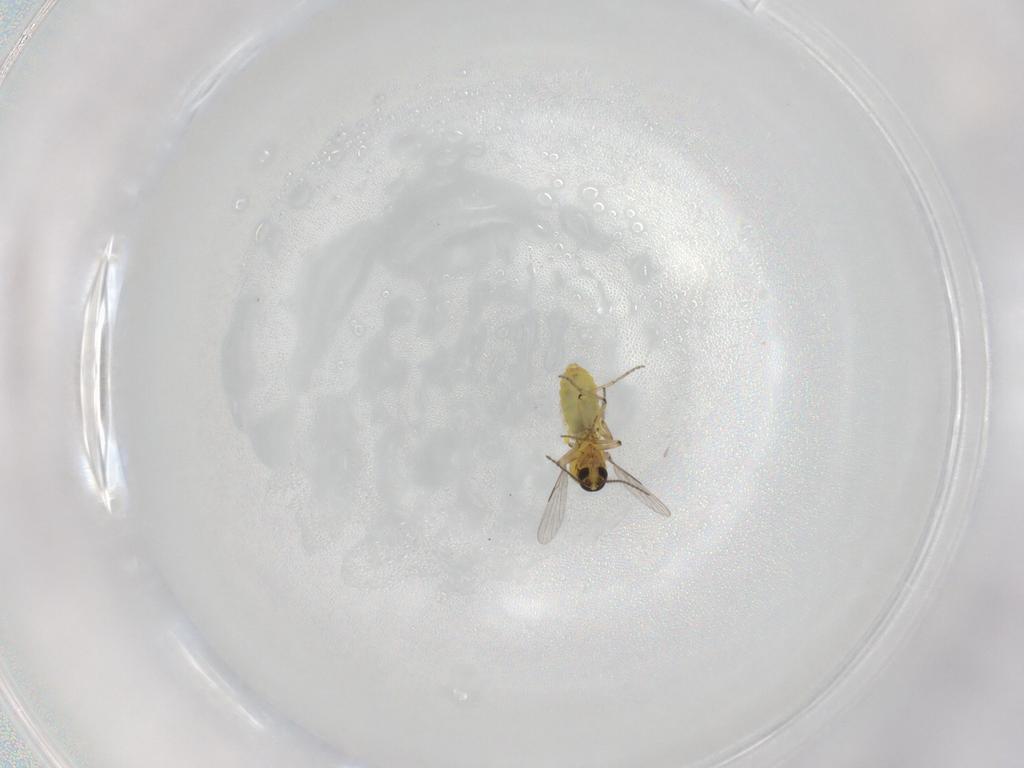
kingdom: Animalia
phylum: Arthropoda
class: Insecta
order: Diptera
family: Ceratopogonidae
